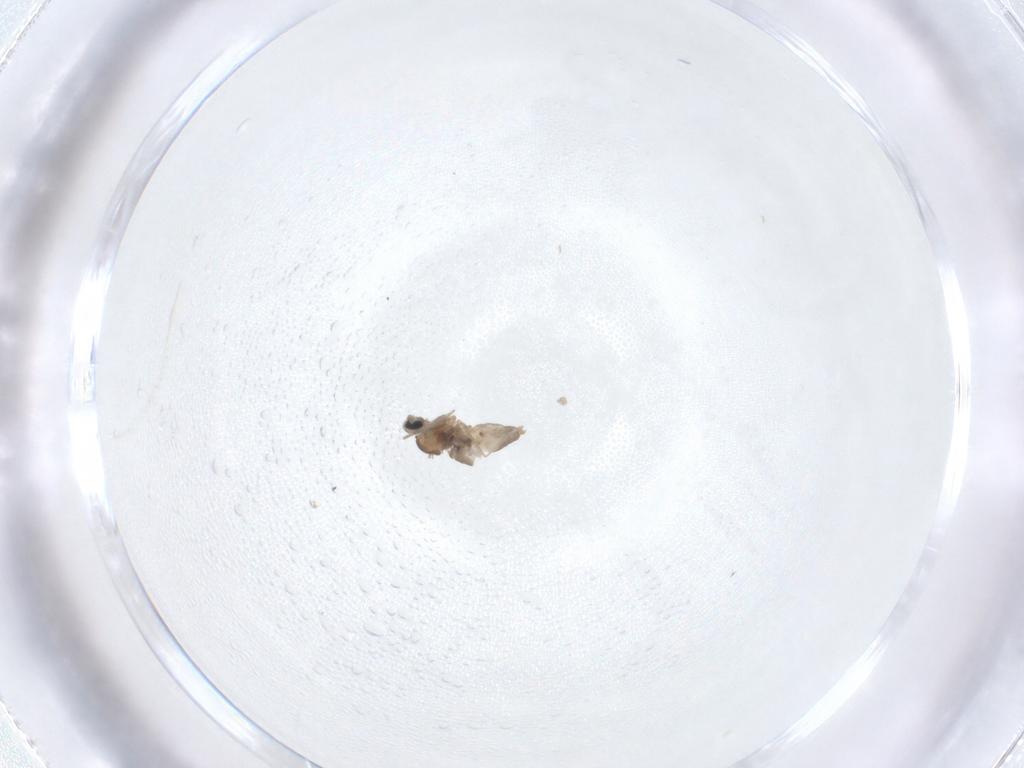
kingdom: Animalia
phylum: Arthropoda
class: Insecta
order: Diptera
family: Cecidomyiidae
